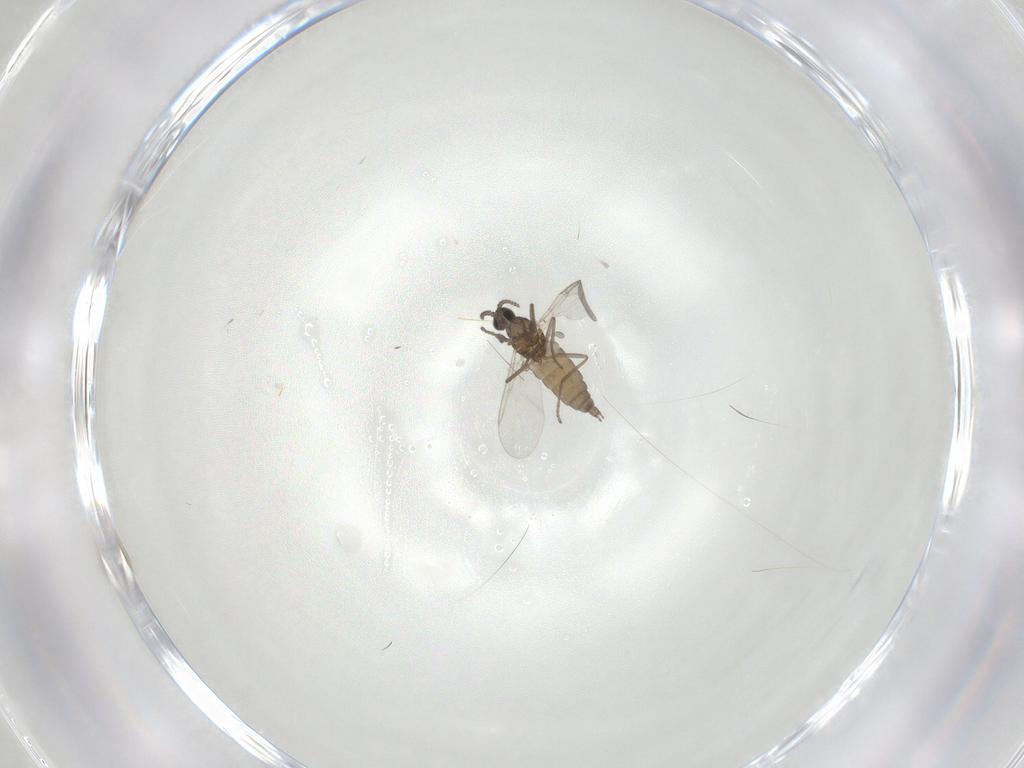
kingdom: Animalia
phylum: Arthropoda
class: Insecta
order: Diptera
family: Cecidomyiidae
